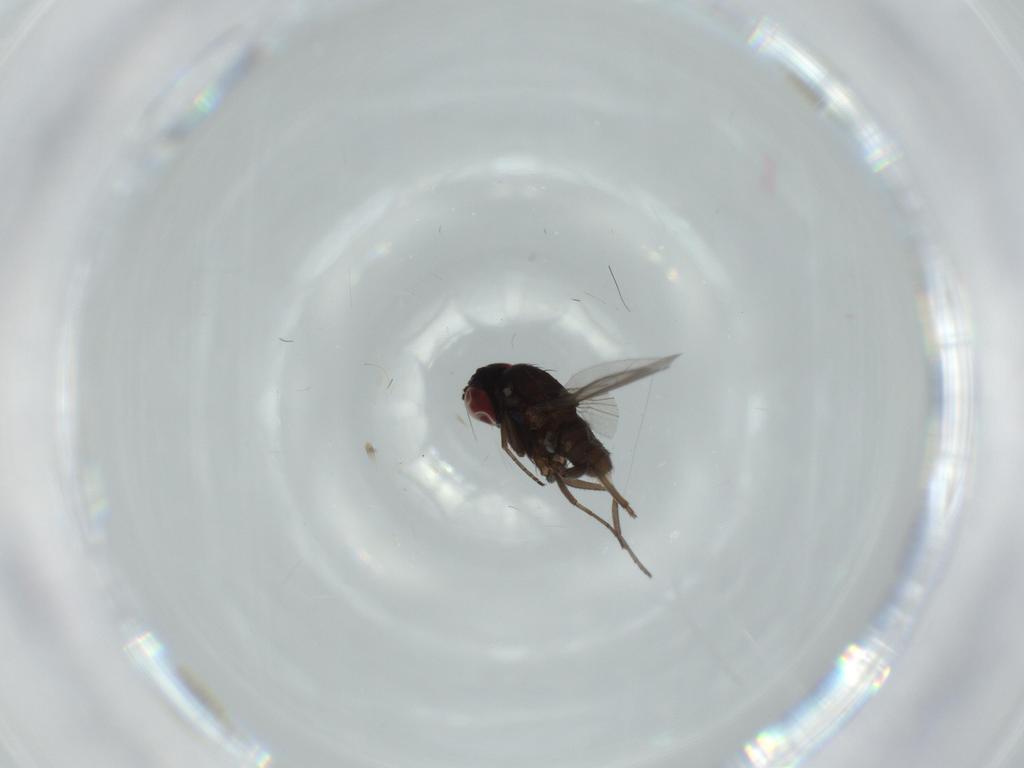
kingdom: Animalia
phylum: Arthropoda
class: Insecta
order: Diptera
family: Dolichopodidae
